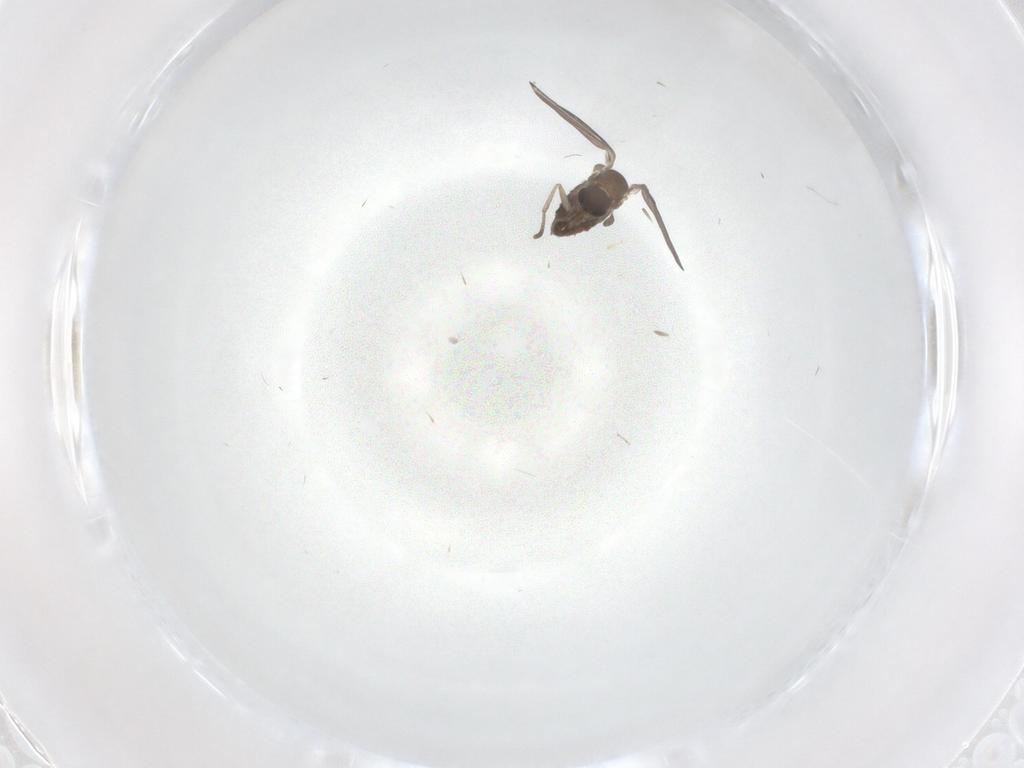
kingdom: Animalia
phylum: Arthropoda
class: Insecta
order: Diptera
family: Cecidomyiidae
